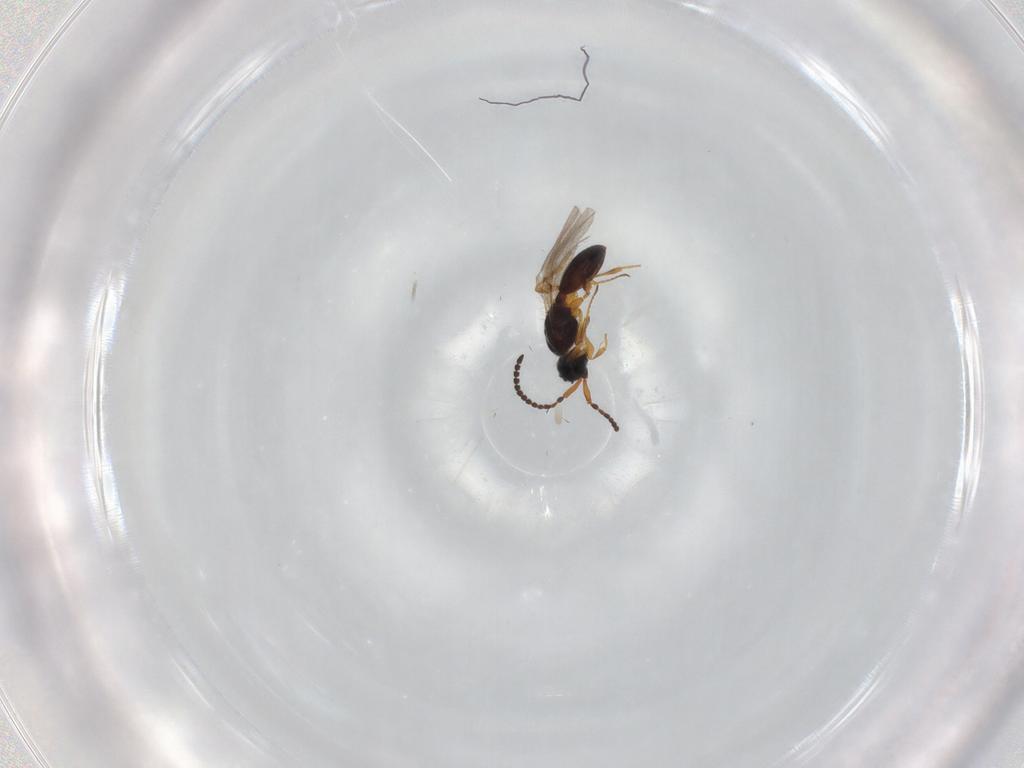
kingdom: Animalia
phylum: Arthropoda
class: Insecta
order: Hymenoptera
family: Diapriidae
